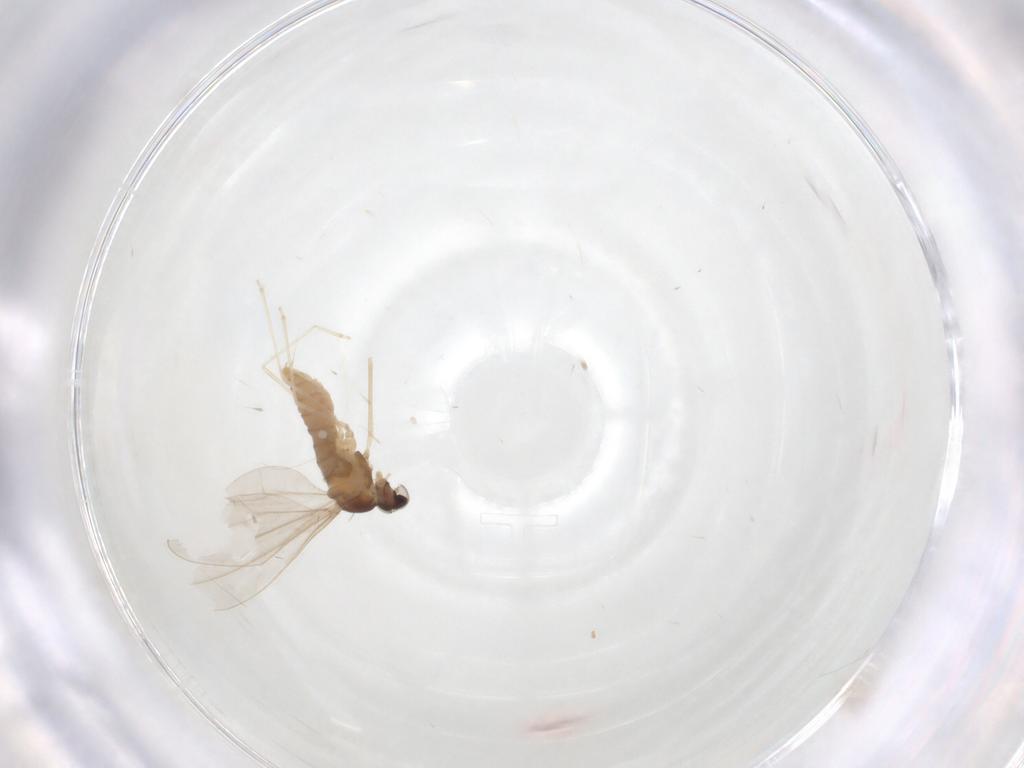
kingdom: Animalia
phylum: Arthropoda
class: Insecta
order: Diptera
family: Cecidomyiidae
